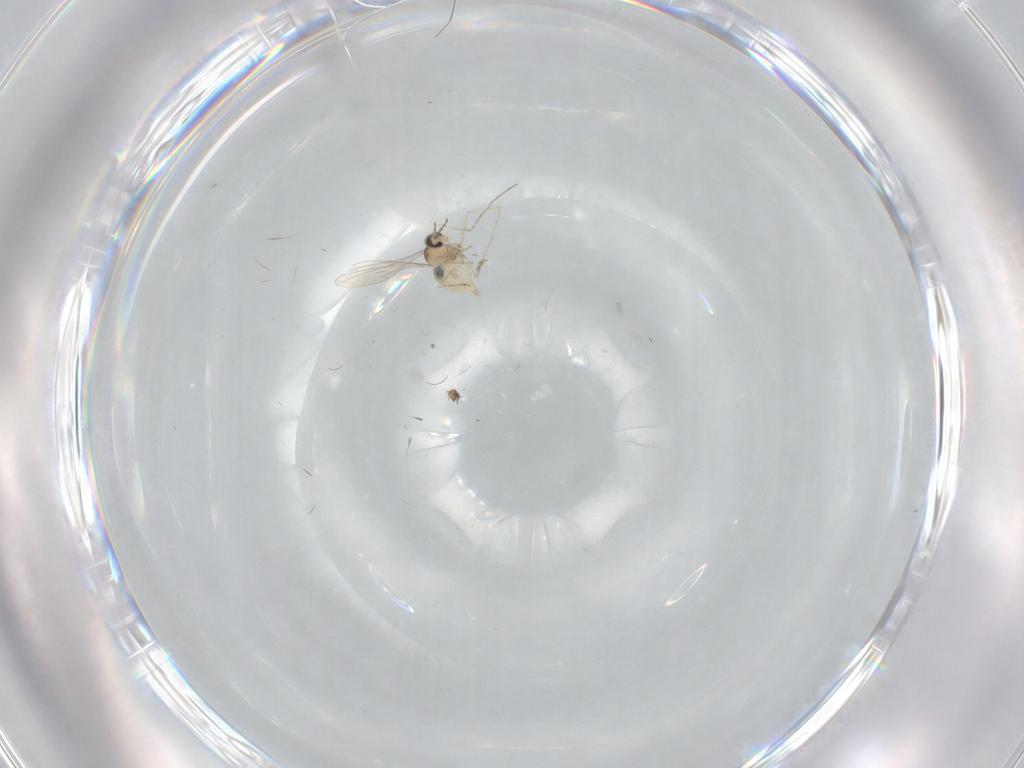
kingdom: Animalia
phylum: Arthropoda
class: Insecta
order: Diptera
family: Cecidomyiidae
